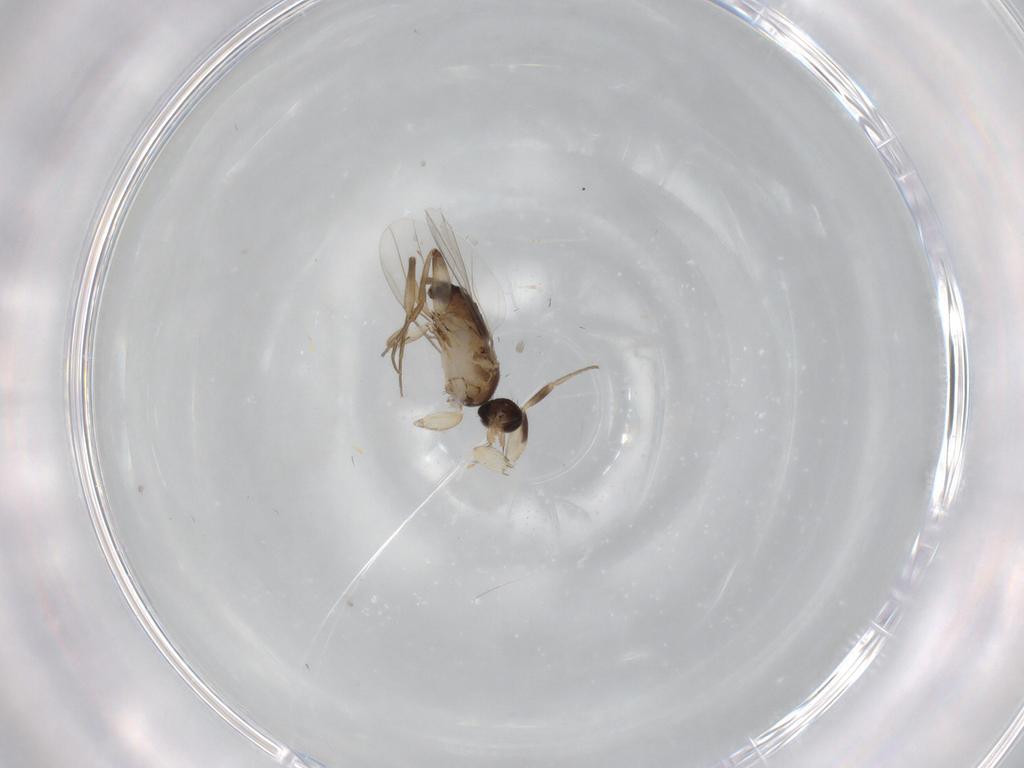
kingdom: Animalia
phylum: Arthropoda
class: Insecta
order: Diptera
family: Phoridae
